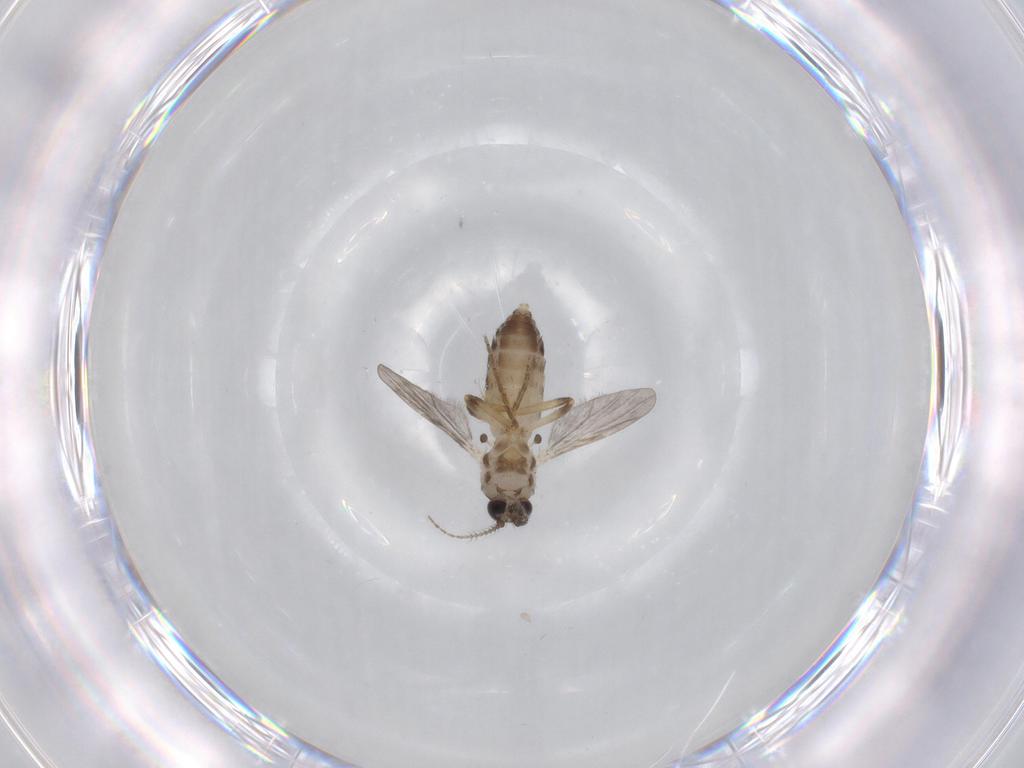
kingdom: Animalia
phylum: Arthropoda
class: Insecta
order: Diptera
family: Ceratopogonidae
